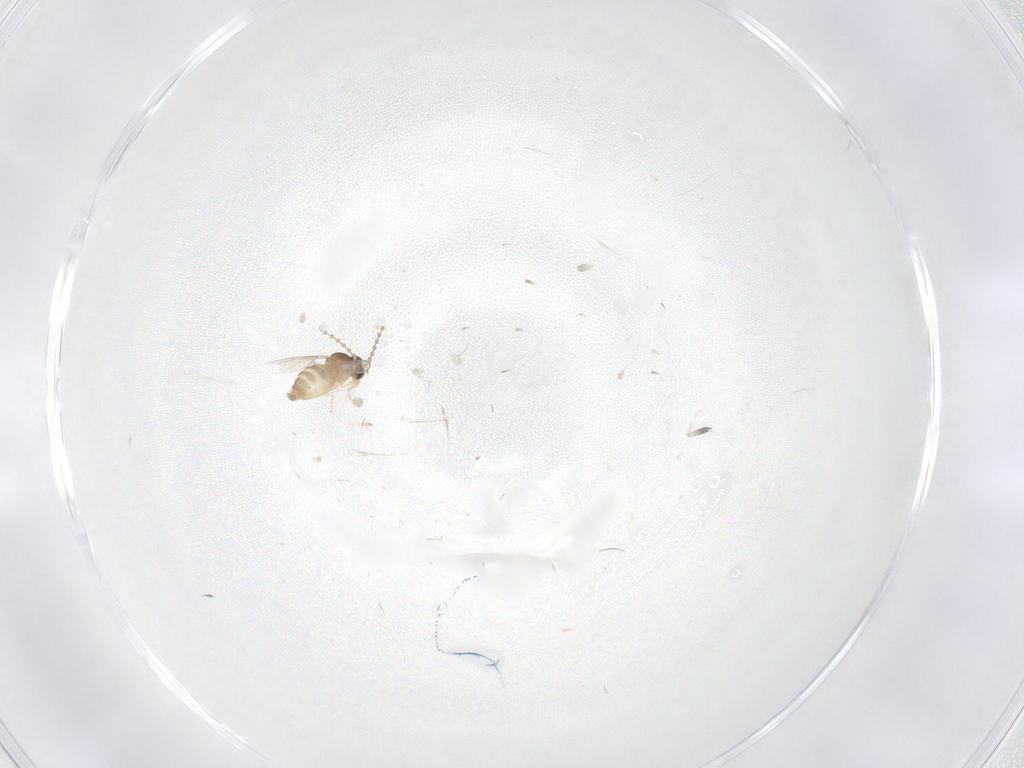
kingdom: Animalia
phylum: Arthropoda
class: Insecta
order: Diptera
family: Cecidomyiidae
